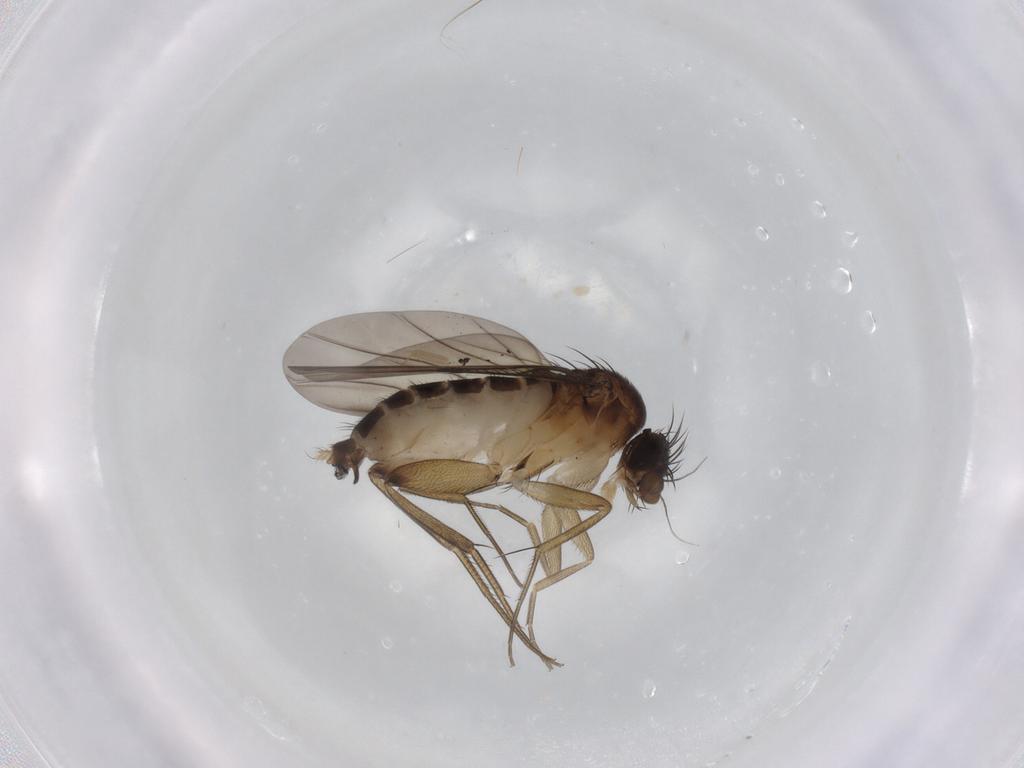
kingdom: Animalia
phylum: Arthropoda
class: Insecta
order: Diptera
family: Phoridae
